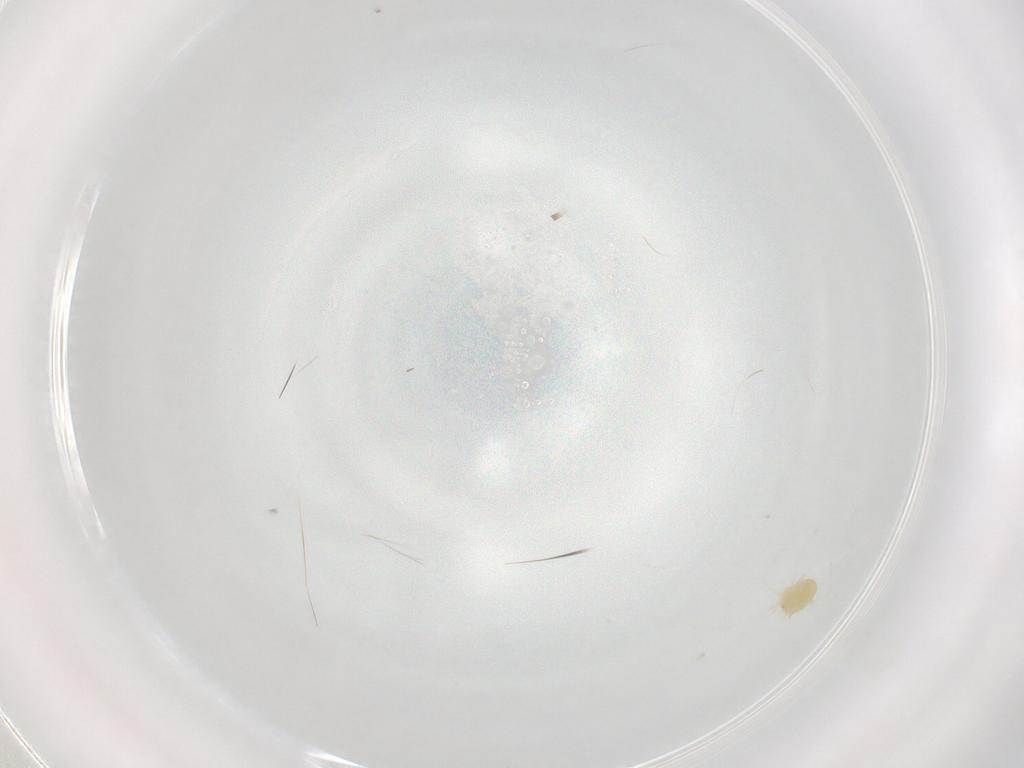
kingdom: Animalia
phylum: Arthropoda
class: Arachnida
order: Trombidiformes
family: Tetranychidae
